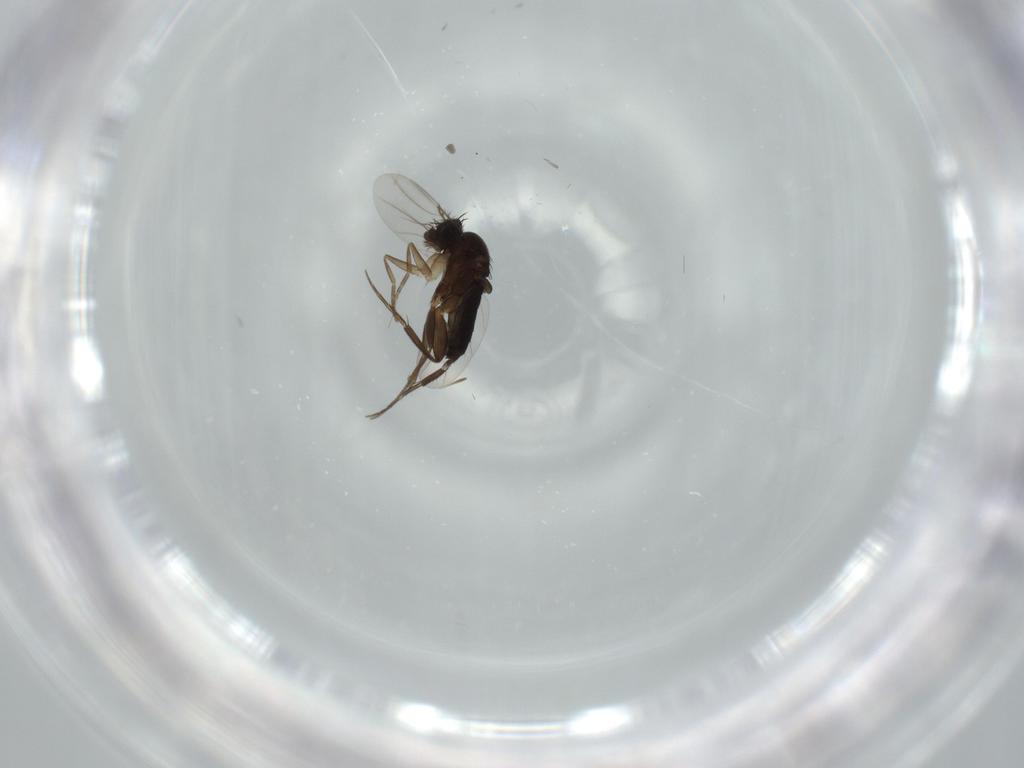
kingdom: Animalia
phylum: Arthropoda
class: Insecta
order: Diptera
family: Phoridae
